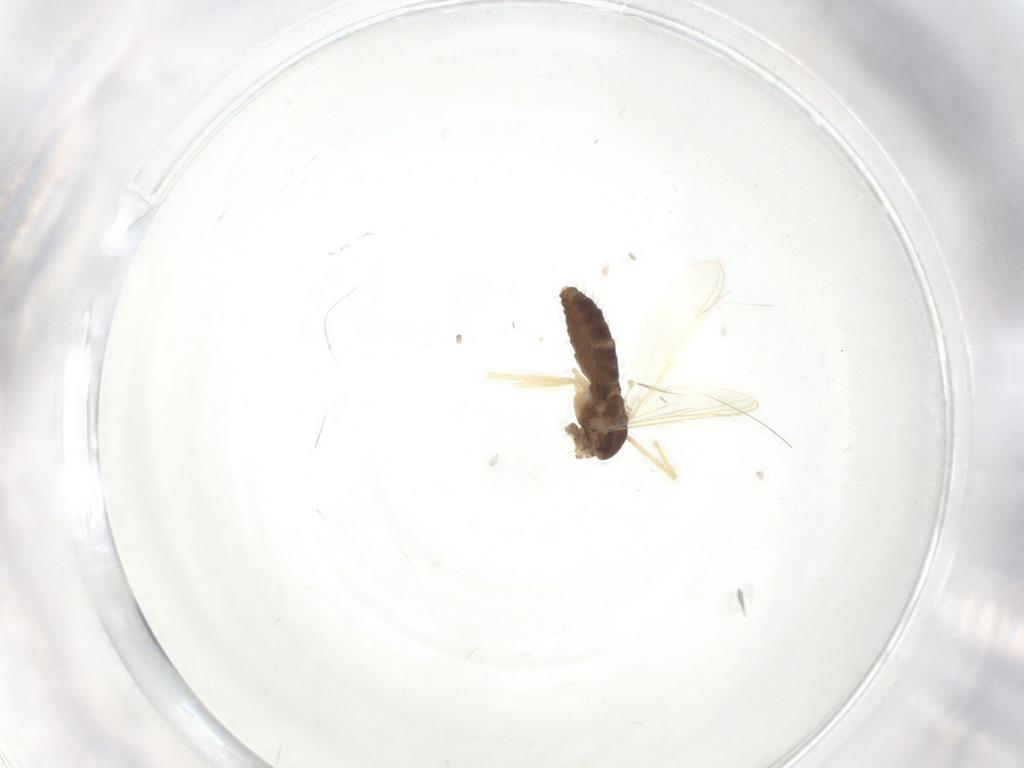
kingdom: Animalia
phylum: Arthropoda
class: Insecta
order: Diptera
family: Chironomidae
